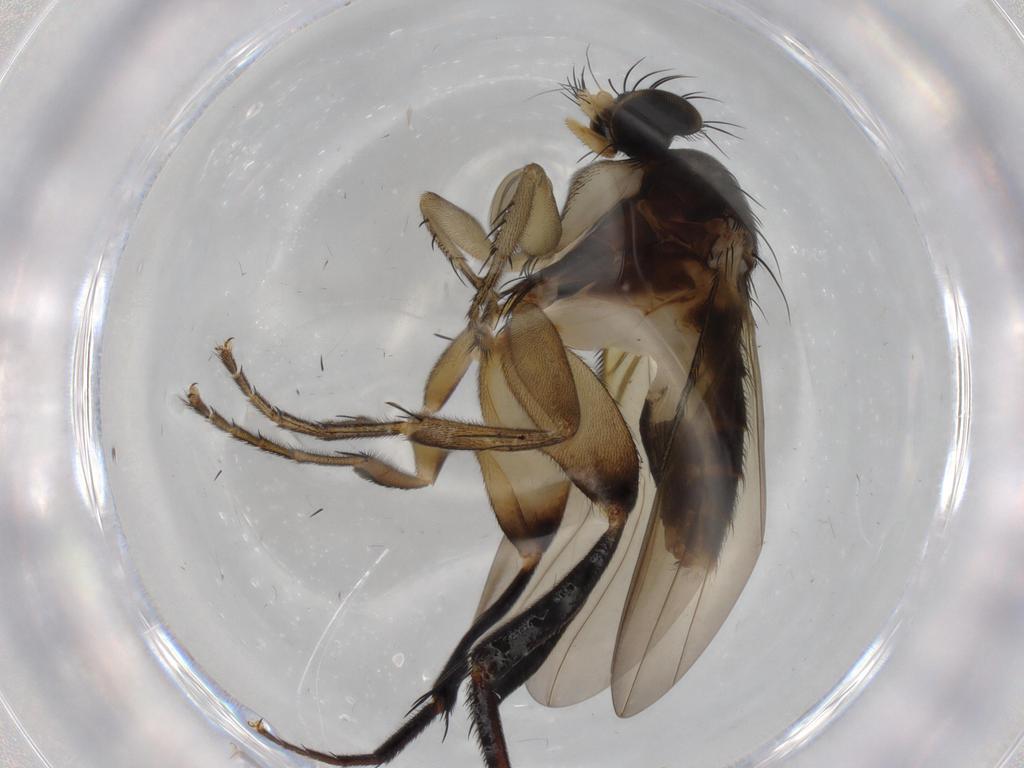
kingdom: Animalia
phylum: Arthropoda
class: Insecta
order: Diptera
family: Phoridae
